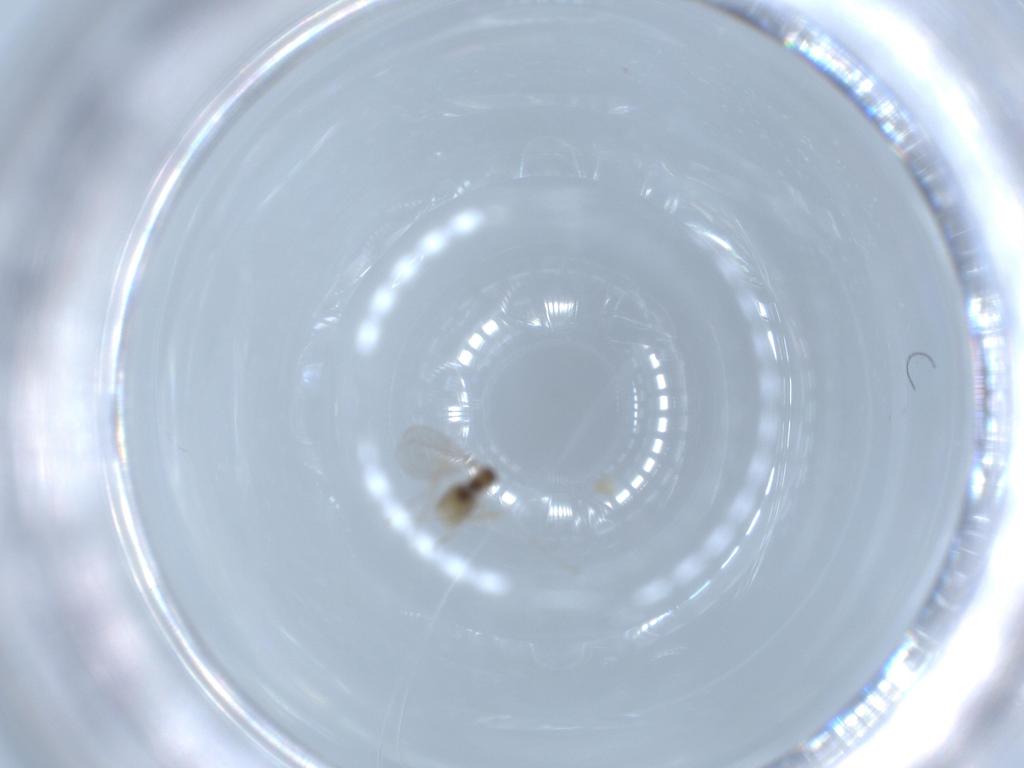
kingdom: Animalia
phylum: Arthropoda
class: Insecta
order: Diptera
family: Cecidomyiidae
